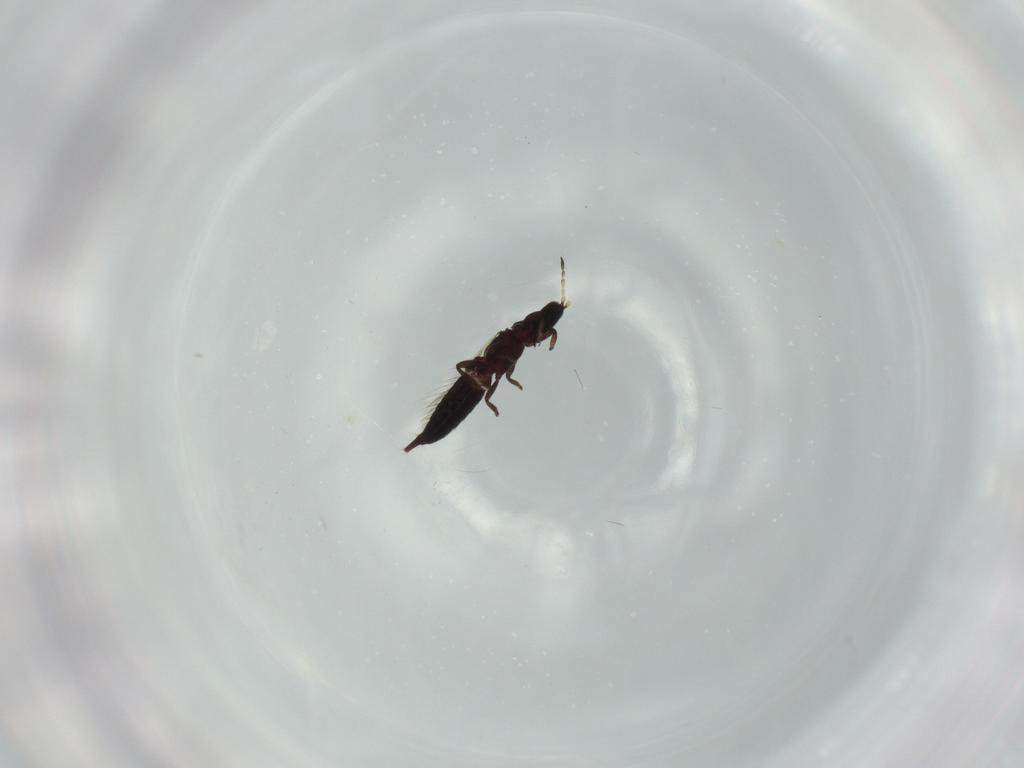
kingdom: Animalia
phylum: Arthropoda
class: Insecta
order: Thysanoptera
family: Phlaeothripidae
